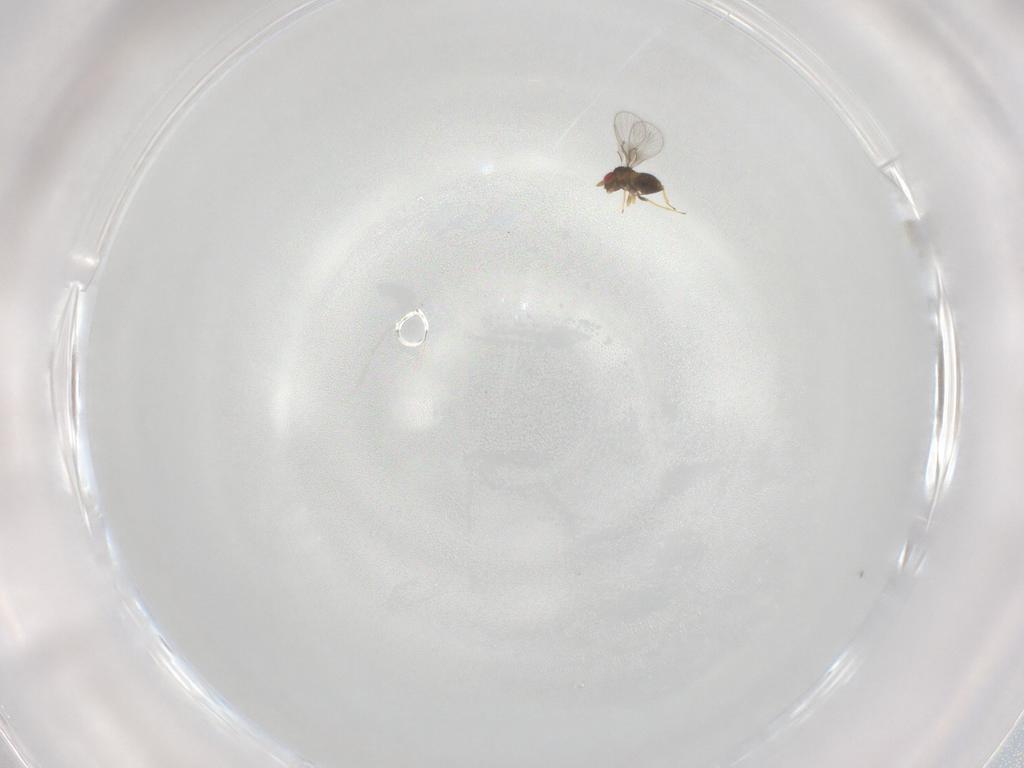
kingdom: Animalia
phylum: Arthropoda
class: Insecta
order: Hymenoptera
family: Trichogrammatidae
